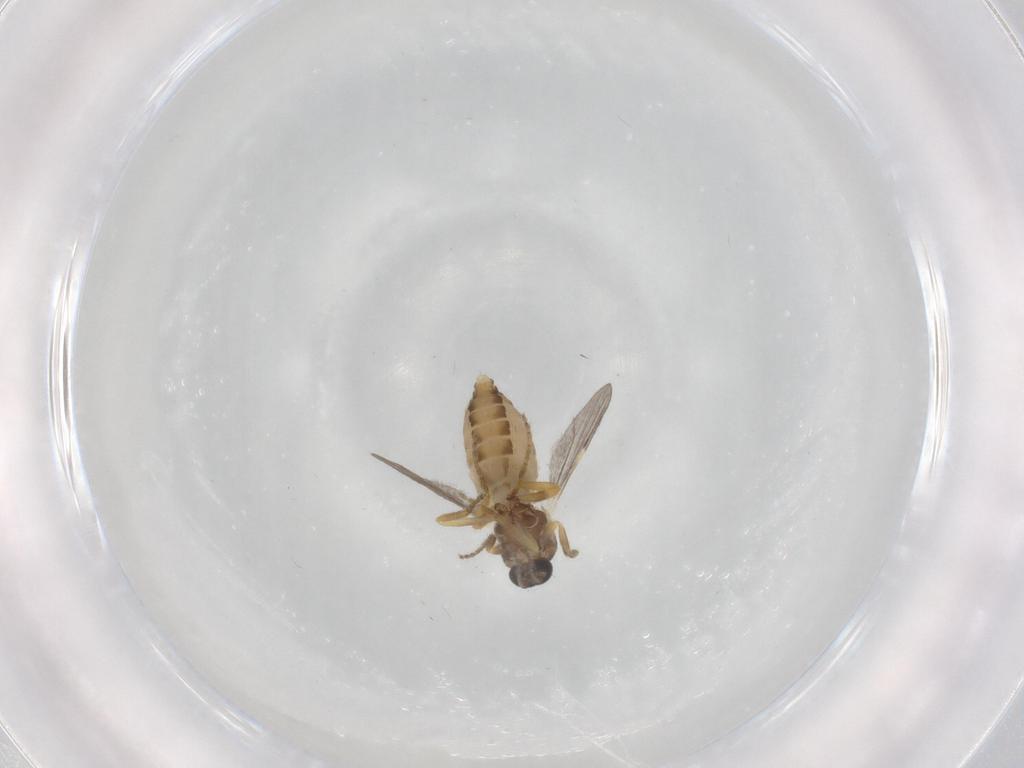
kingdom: Animalia
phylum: Arthropoda
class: Insecta
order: Diptera
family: Ceratopogonidae
